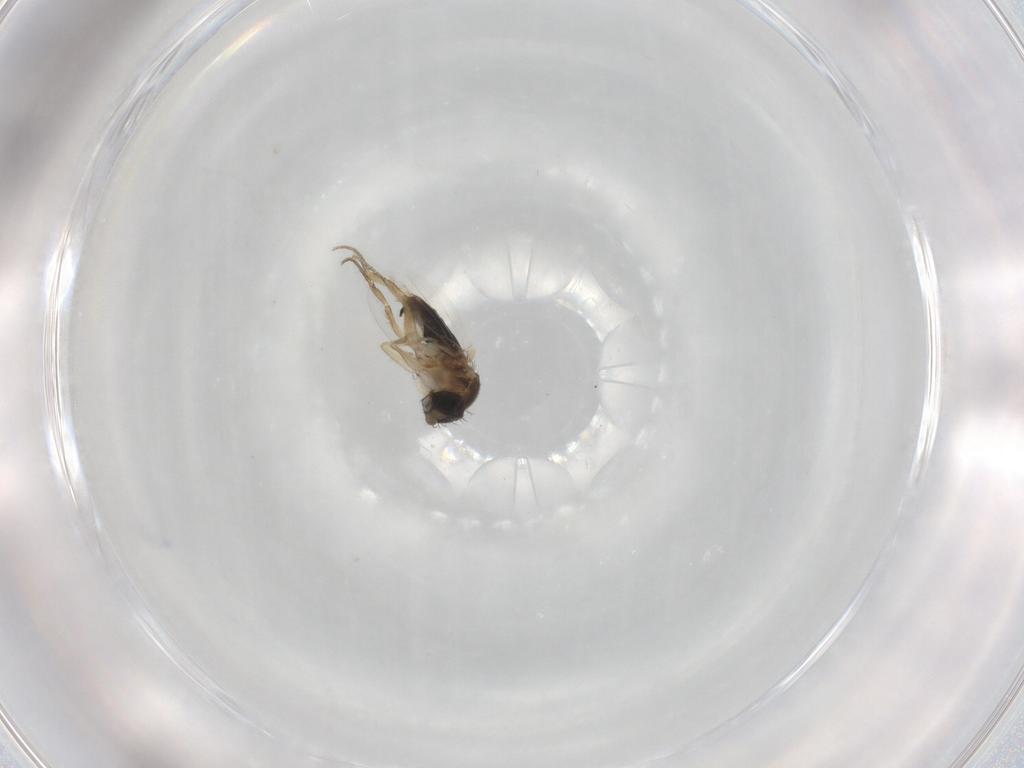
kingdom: Animalia
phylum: Arthropoda
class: Insecta
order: Diptera
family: Phoridae
